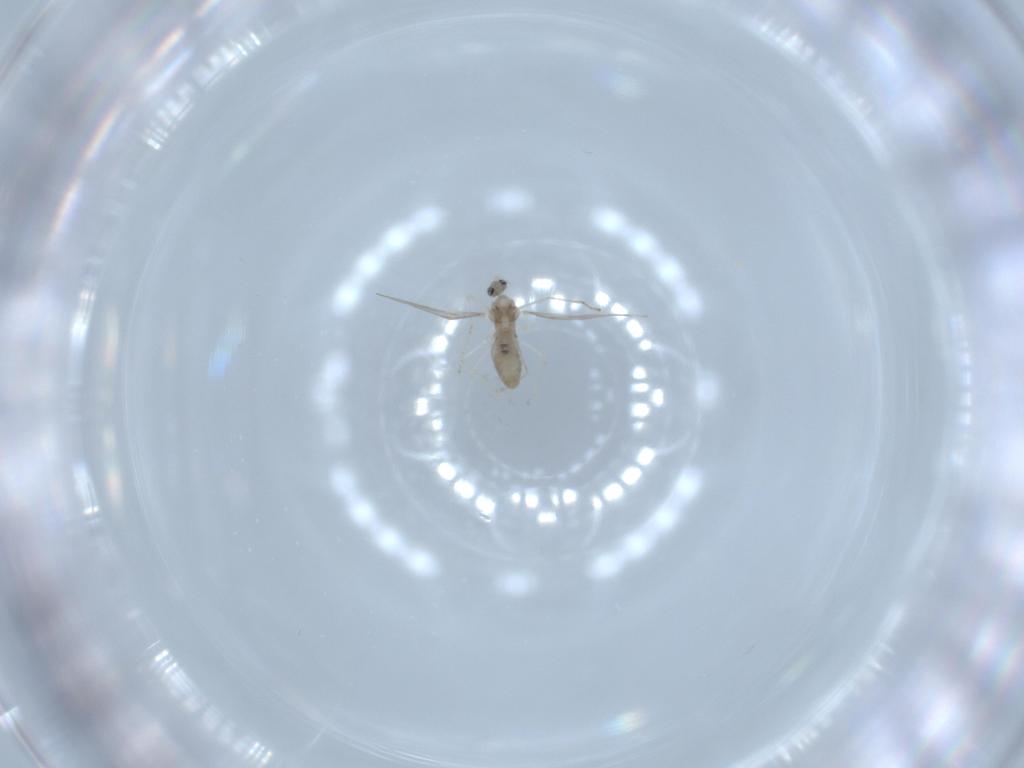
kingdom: Animalia
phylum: Arthropoda
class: Insecta
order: Diptera
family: Cecidomyiidae
